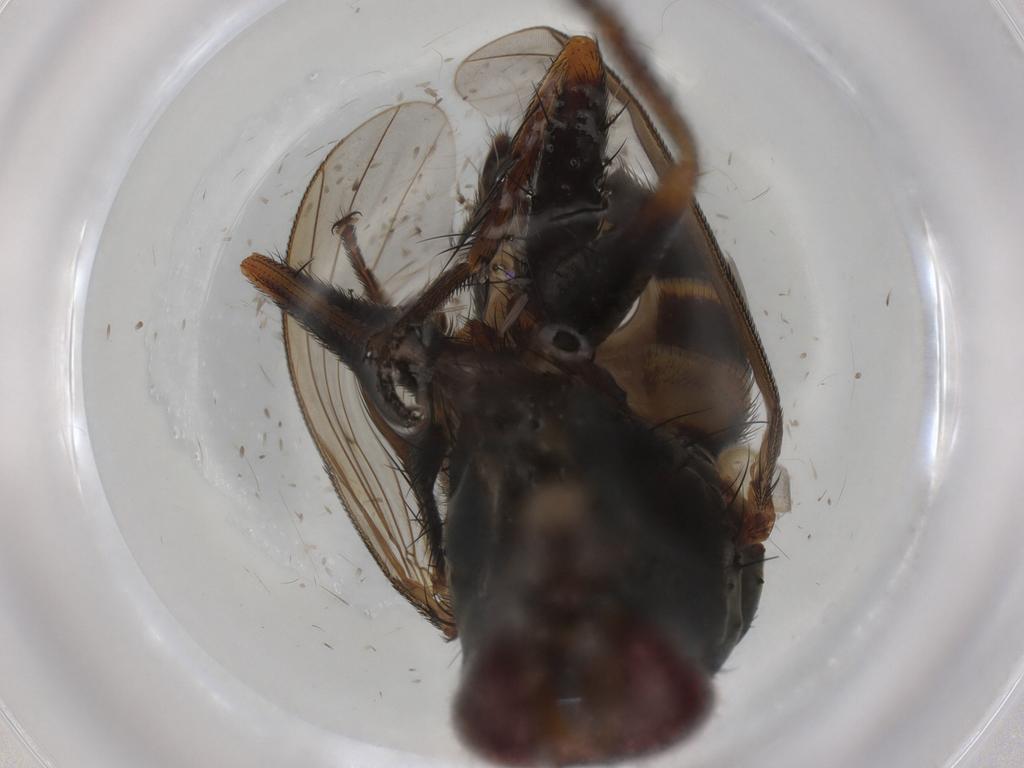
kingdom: Animalia
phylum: Arthropoda
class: Insecta
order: Diptera
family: Muscidae
